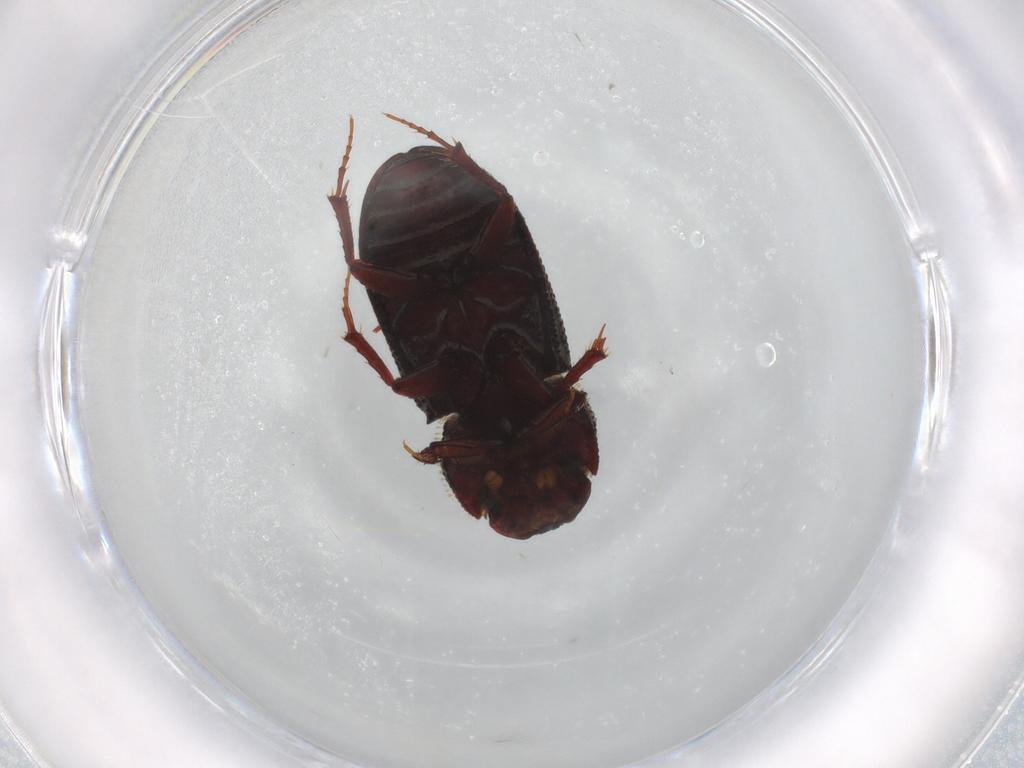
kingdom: Animalia
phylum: Arthropoda
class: Insecta
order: Coleoptera
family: Dytiscidae
